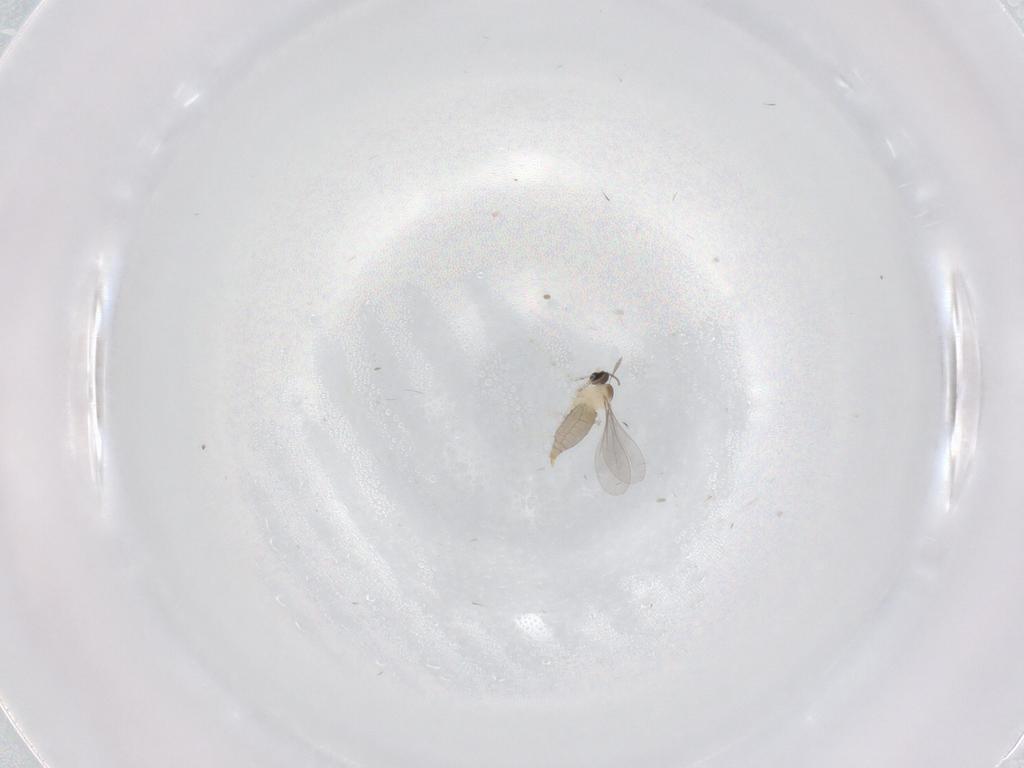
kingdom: Animalia
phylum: Arthropoda
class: Insecta
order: Diptera
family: Cecidomyiidae
